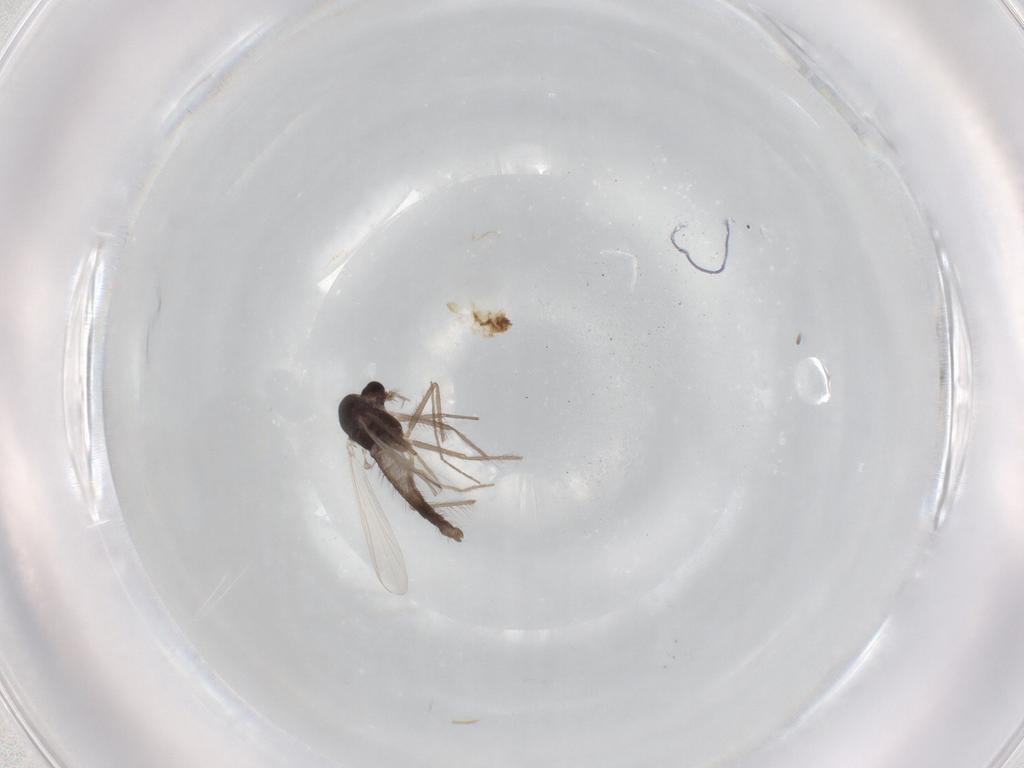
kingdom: Animalia
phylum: Arthropoda
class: Insecta
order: Diptera
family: Chironomidae
